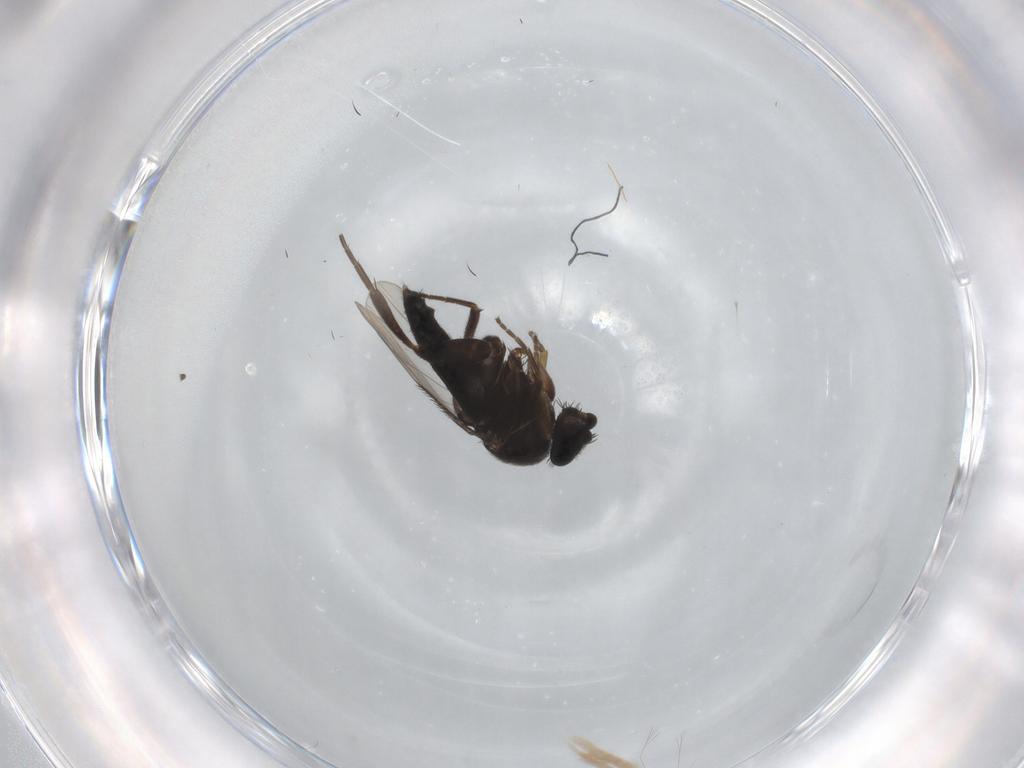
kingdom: Animalia
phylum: Arthropoda
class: Insecta
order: Diptera
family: Phoridae
